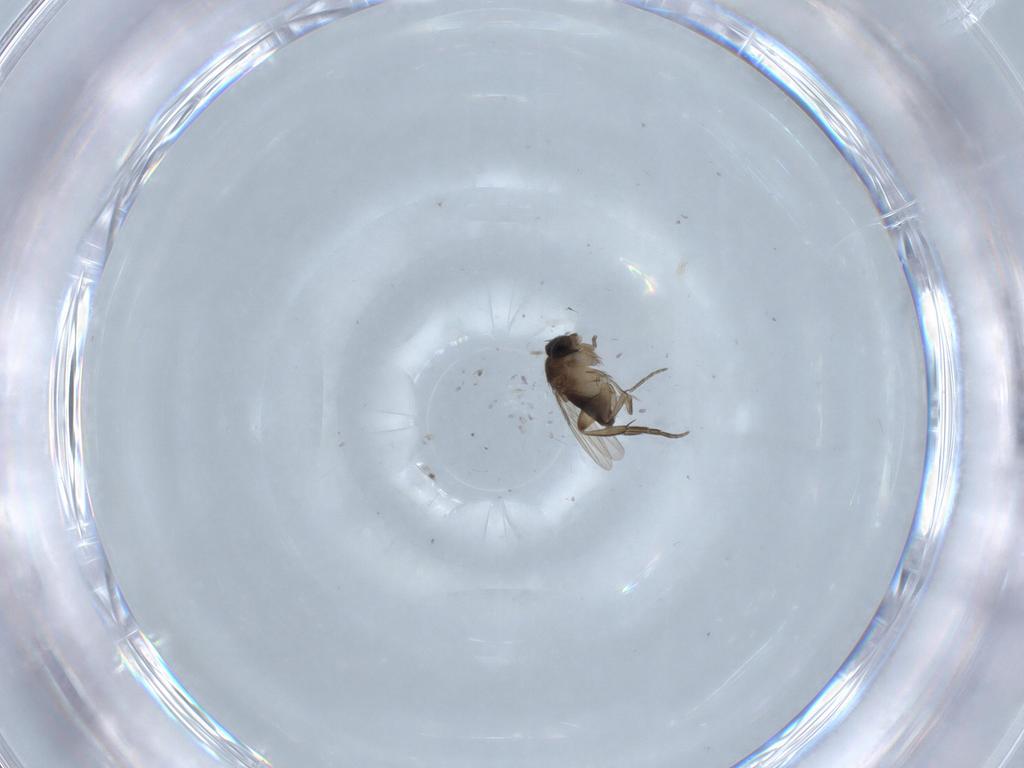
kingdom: Animalia
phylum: Arthropoda
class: Insecta
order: Diptera
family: Phoridae
